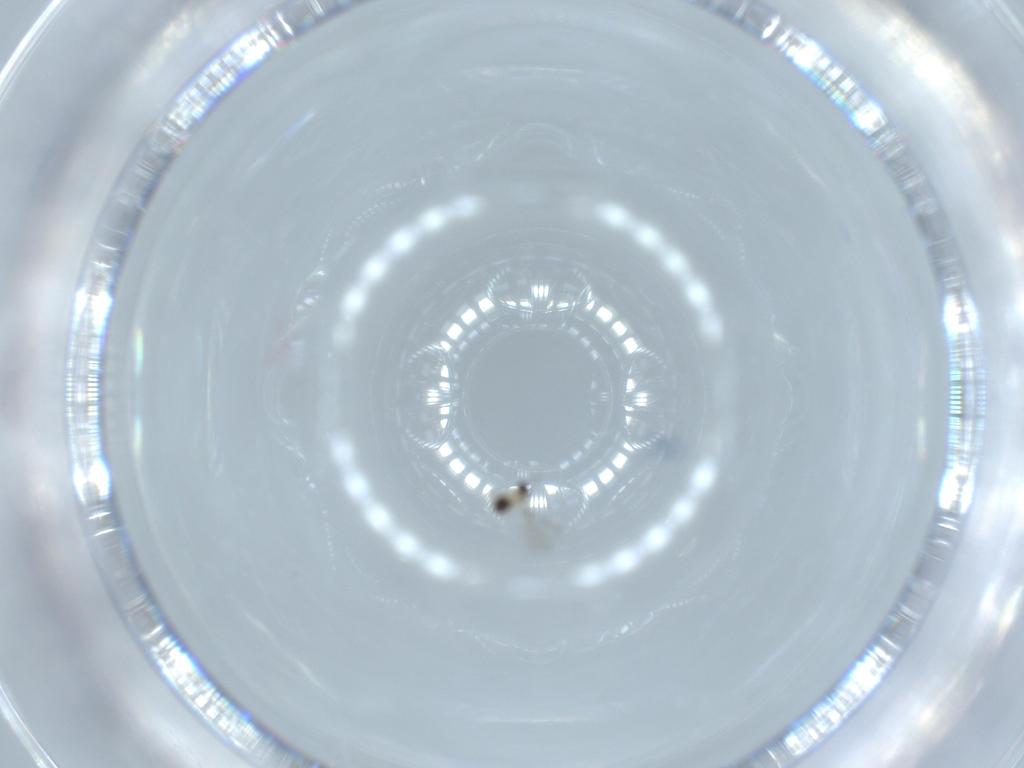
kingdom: Animalia
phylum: Arthropoda
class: Insecta
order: Hymenoptera
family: Mymaridae
